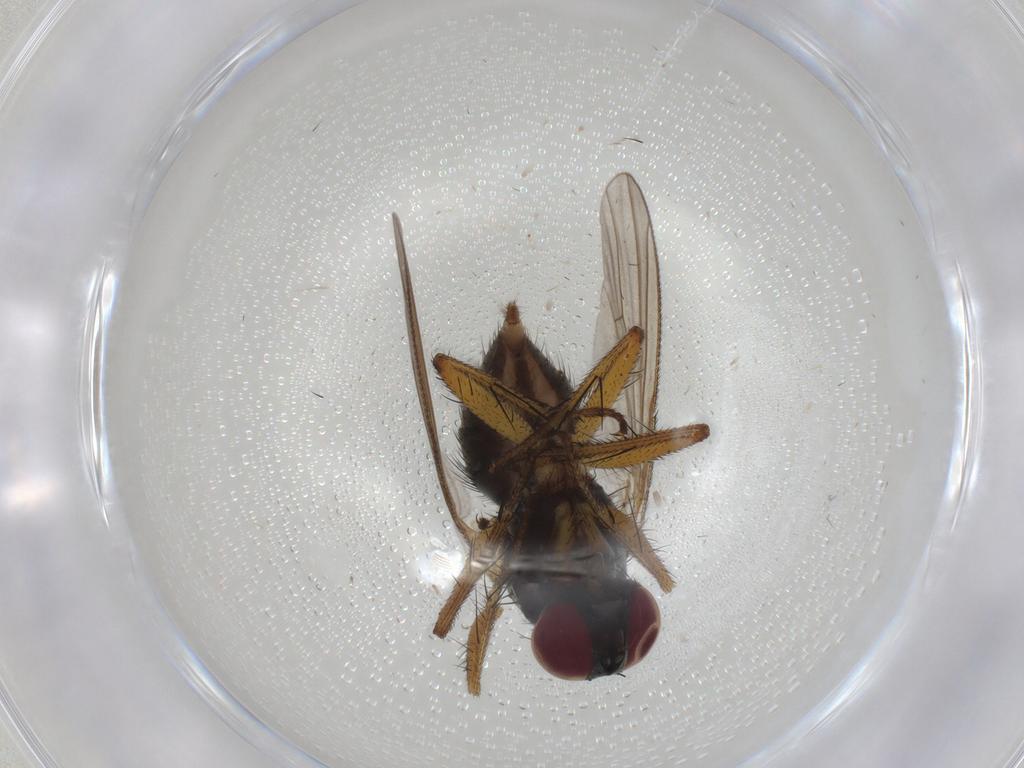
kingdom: Animalia
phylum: Arthropoda
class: Insecta
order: Diptera
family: Muscidae
